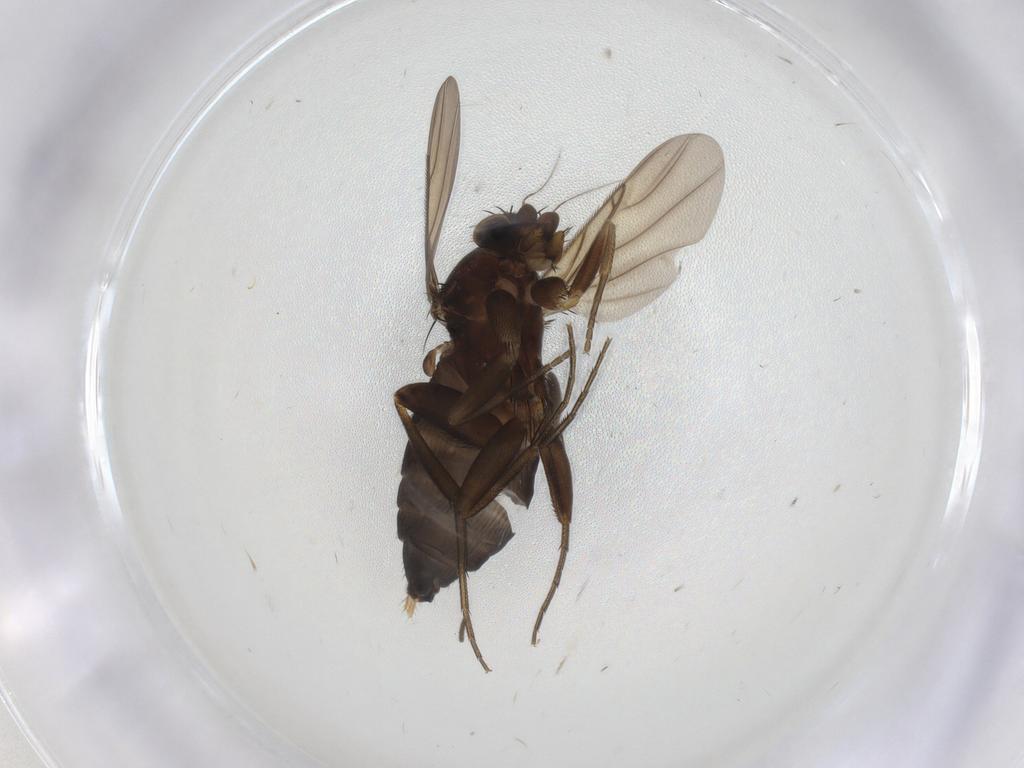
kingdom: Animalia
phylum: Arthropoda
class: Insecta
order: Diptera
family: Phoridae
